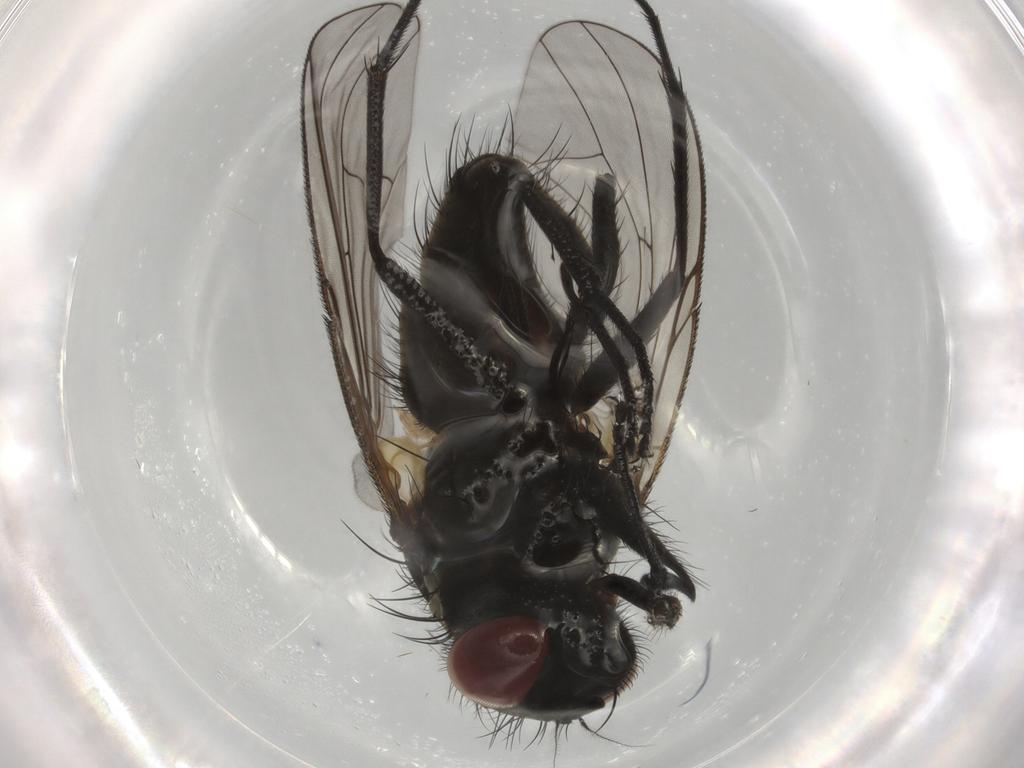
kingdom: Animalia
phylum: Arthropoda
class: Insecta
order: Diptera
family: Muscidae
